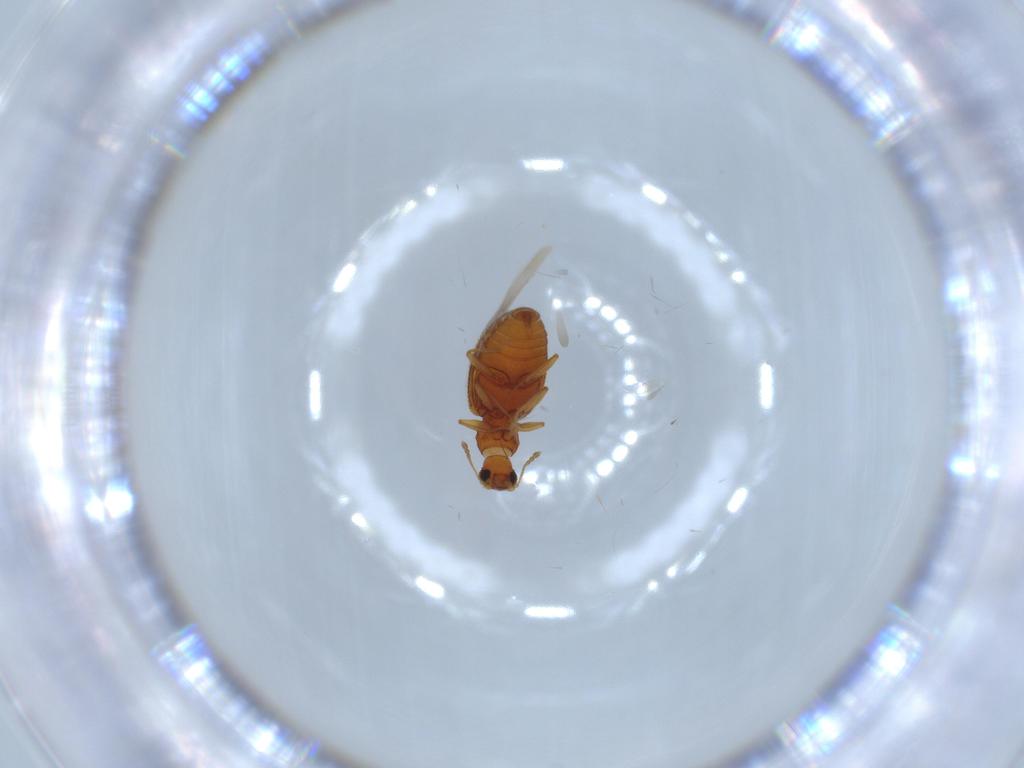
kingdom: Animalia
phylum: Arthropoda
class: Insecta
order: Coleoptera
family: Latridiidae
